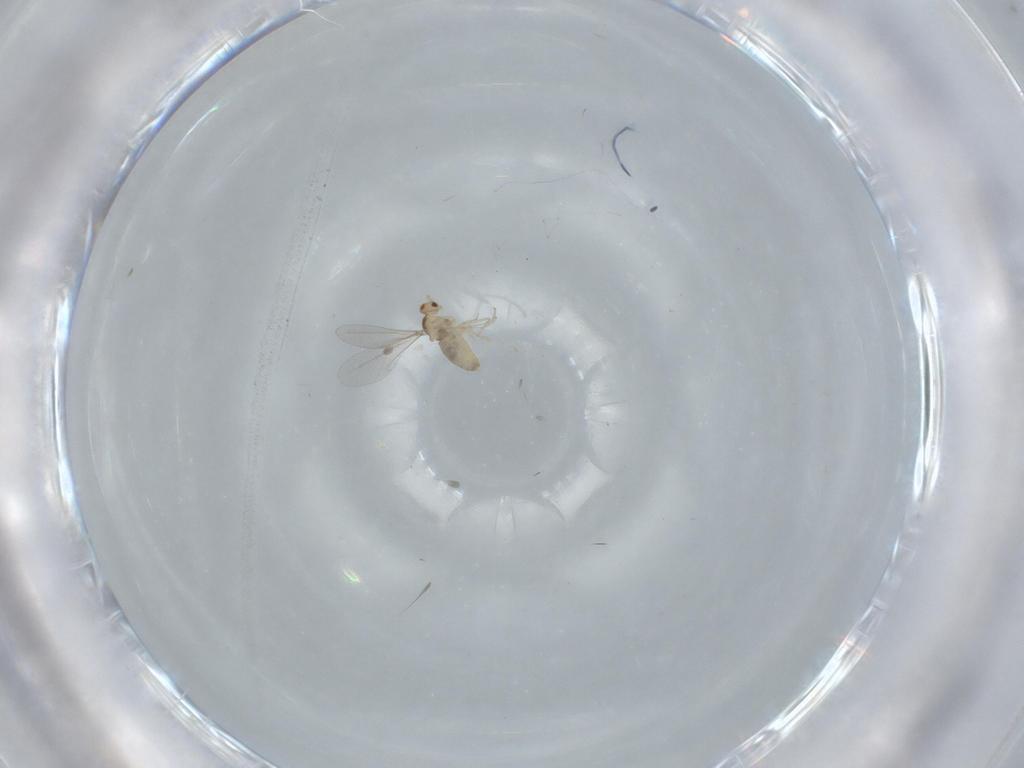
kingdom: Animalia
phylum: Arthropoda
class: Insecta
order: Diptera
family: Cecidomyiidae
